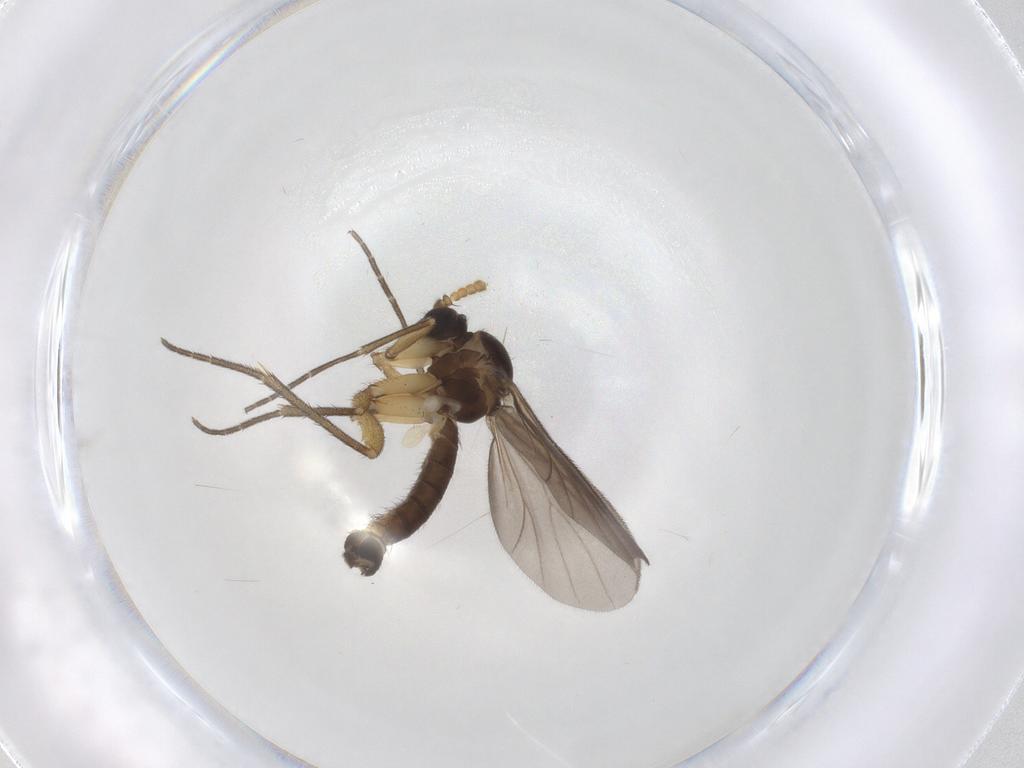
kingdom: Animalia
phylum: Arthropoda
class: Insecta
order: Diptera
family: Mycetophilidae
